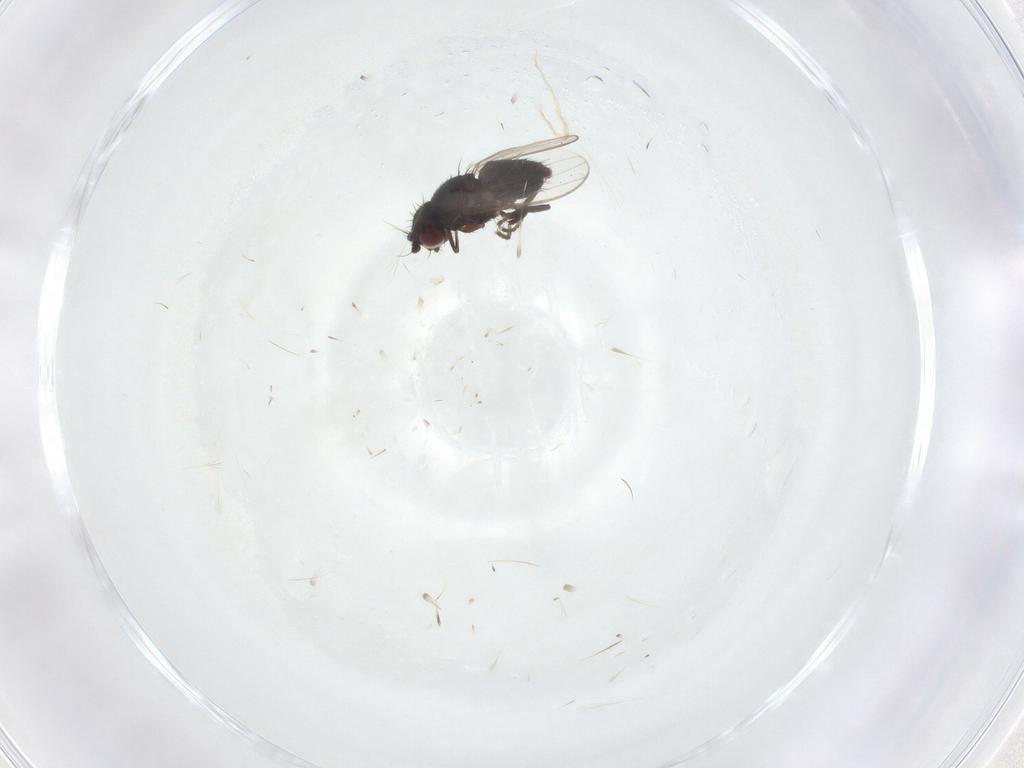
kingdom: Animalia
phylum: Arthropoda
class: Insecta
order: Diptera
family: Milichiidae
